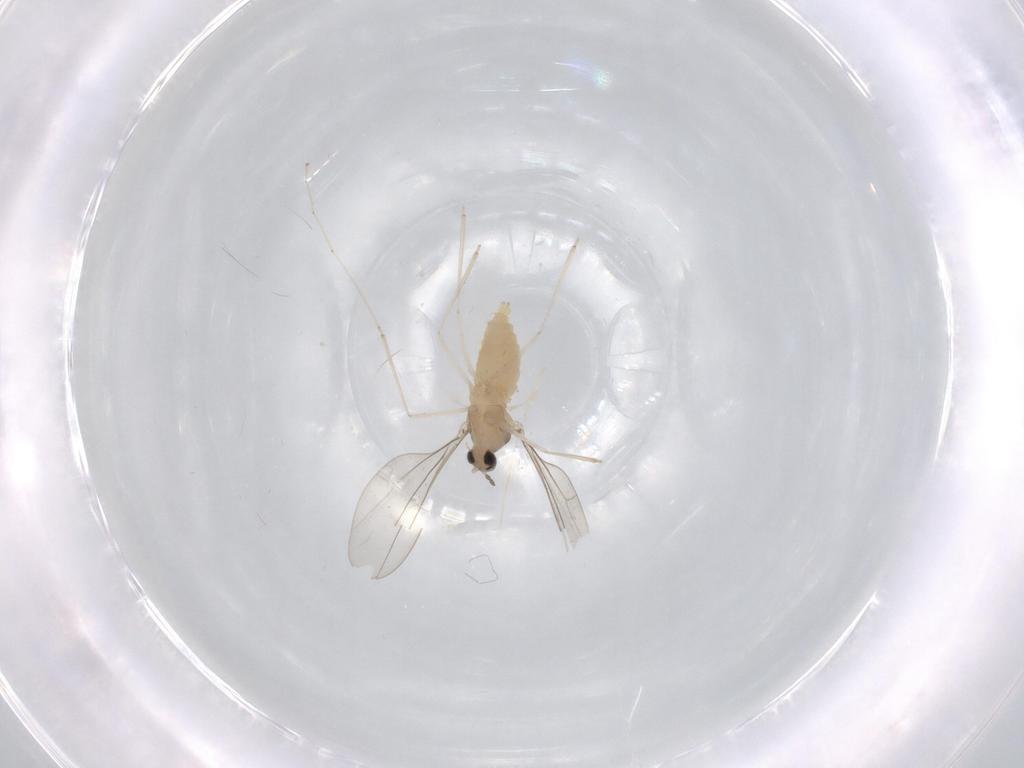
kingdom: Animalia
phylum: Arthropoda
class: Insecta
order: Diptera
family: Cecidomyiidae
